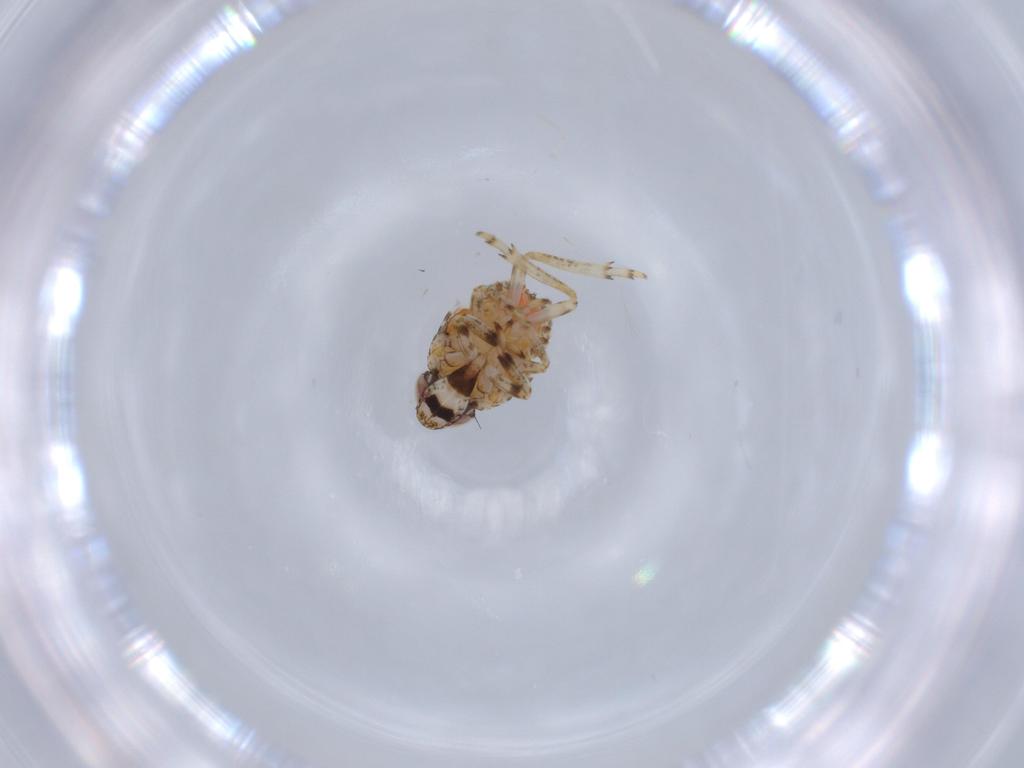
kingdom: Animalia
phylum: Arthropoda
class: Insecta
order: Hemiptera
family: Issidae
